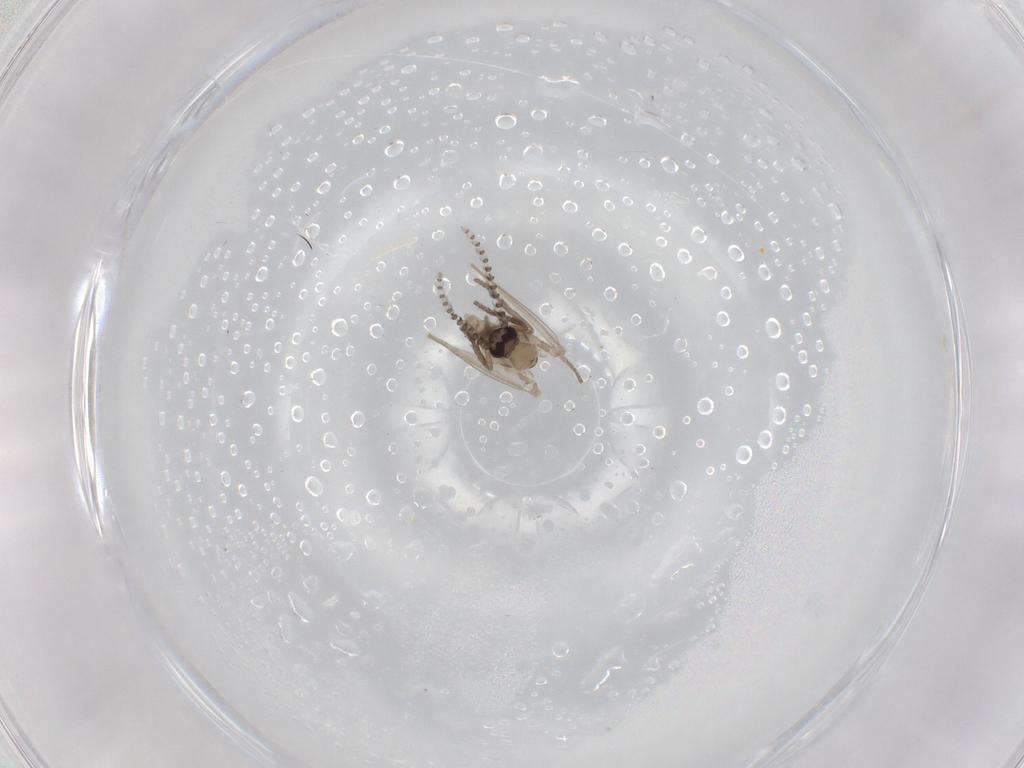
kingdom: Animalia
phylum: Arthropoda
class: Insecta
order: Diptera
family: Psychodidae
